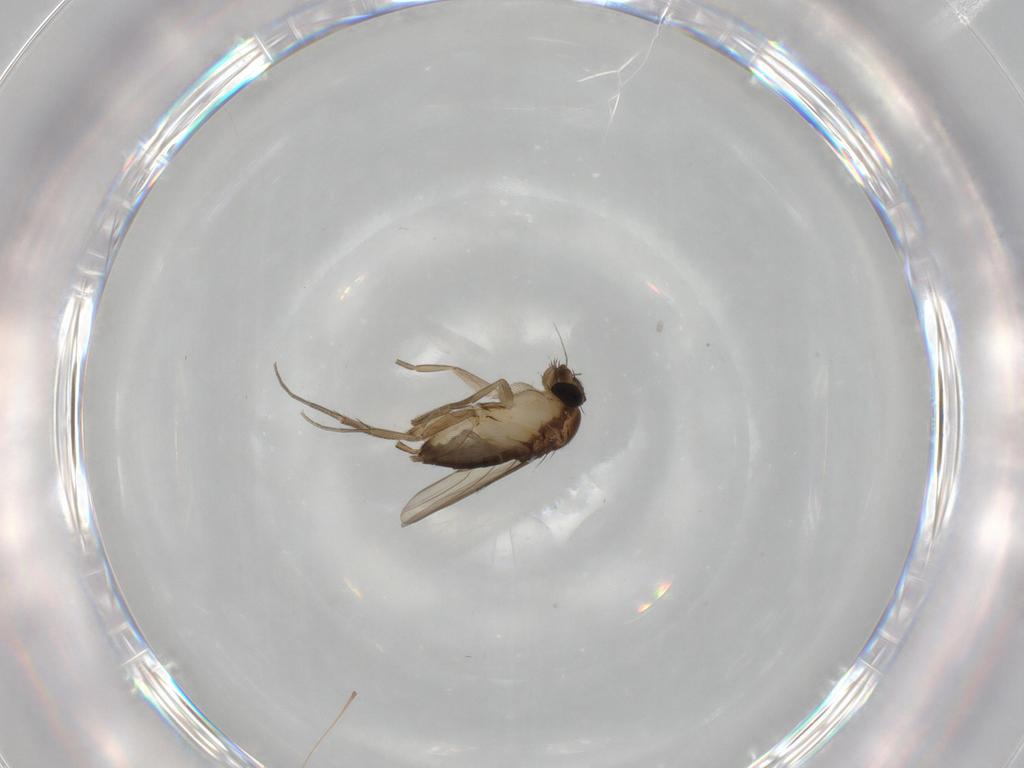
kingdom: Animalia
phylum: Arthropoda
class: Insecta
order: Diptera
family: Phoridae
